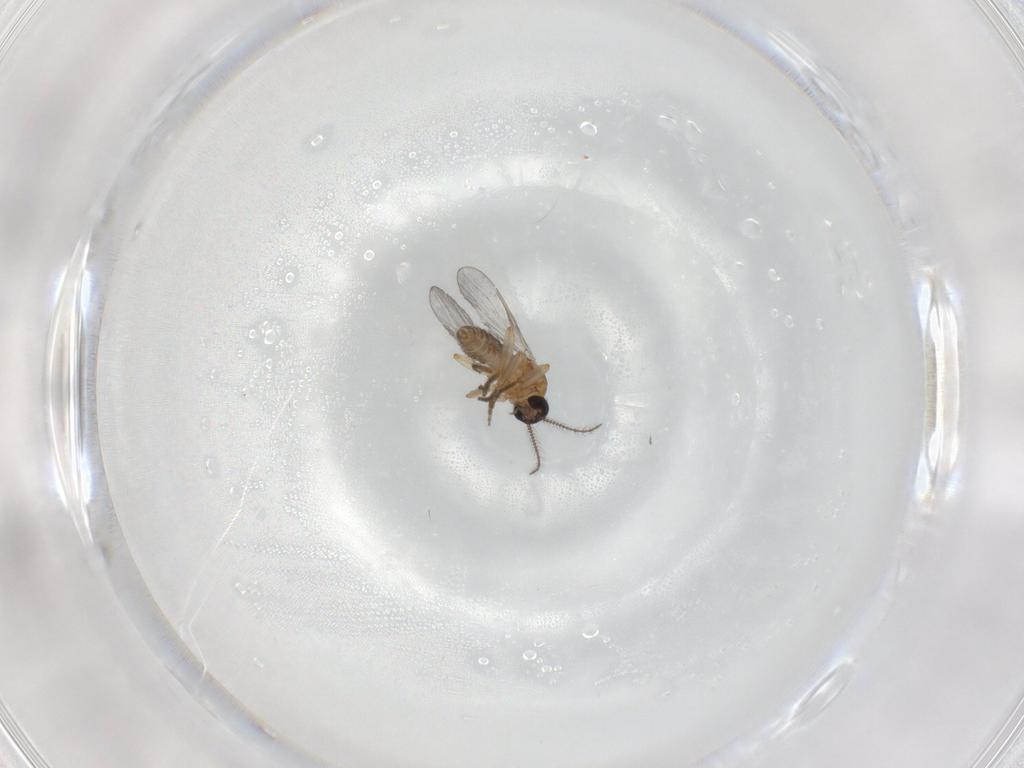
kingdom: Animalia
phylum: Arthropoda
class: Insecta
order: Diptera
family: Ceratopogonidae
